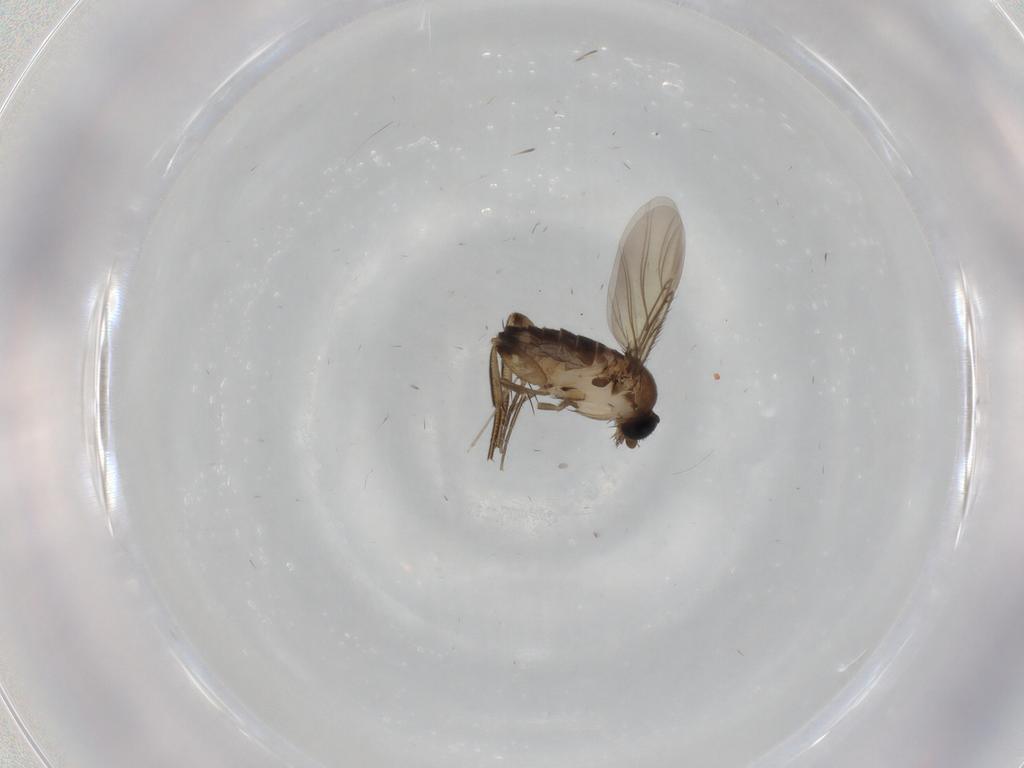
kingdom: Animalia
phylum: Arthropoda
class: Insecta
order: Diptera
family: Phoridae
